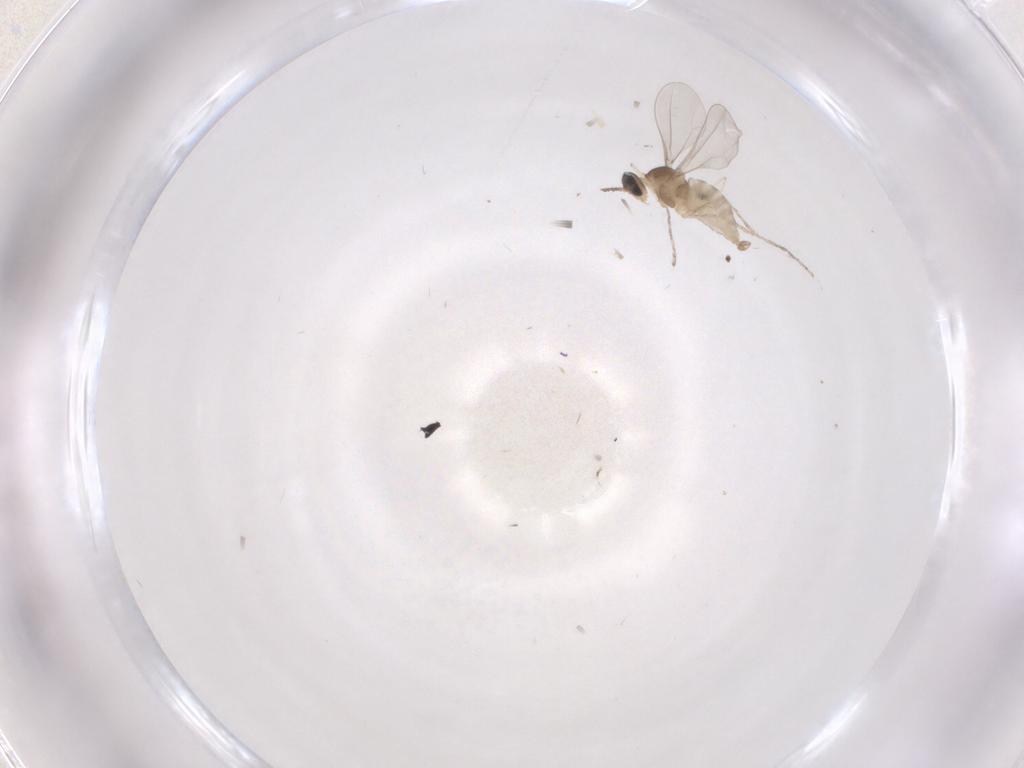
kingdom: Animalia
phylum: Arthropoda
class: Insecta
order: Diptera
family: Cecidomyiidae
